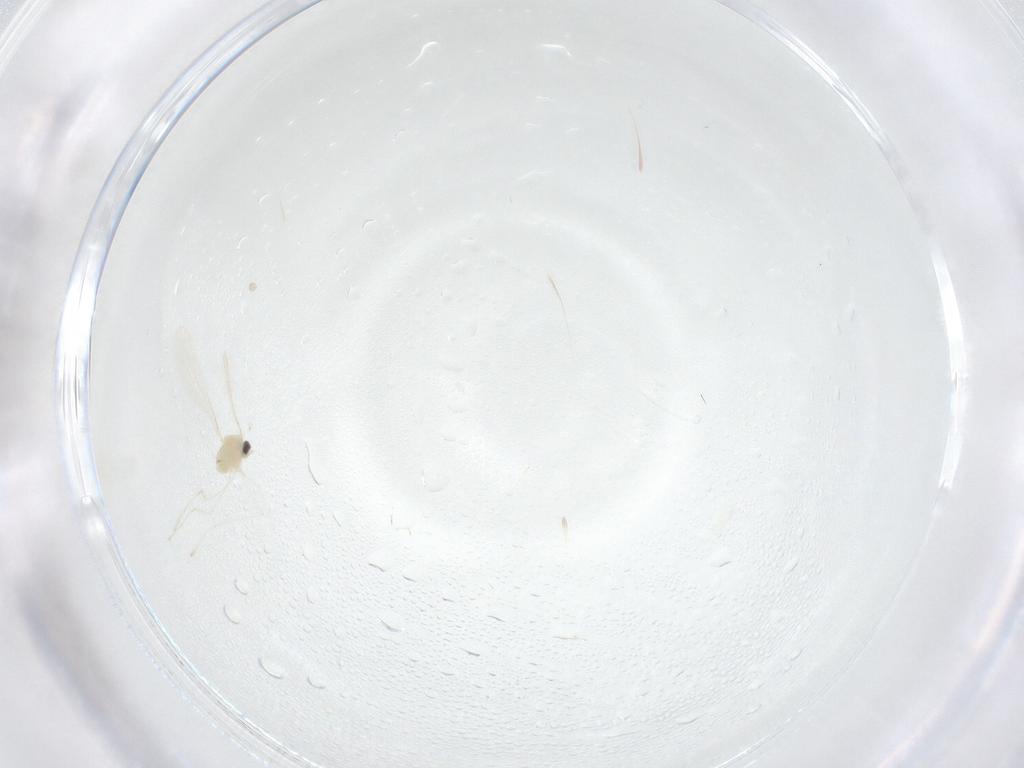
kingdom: Animalia
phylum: Arthropoda
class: Insecta
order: Diptera
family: Cecidomyiidae
